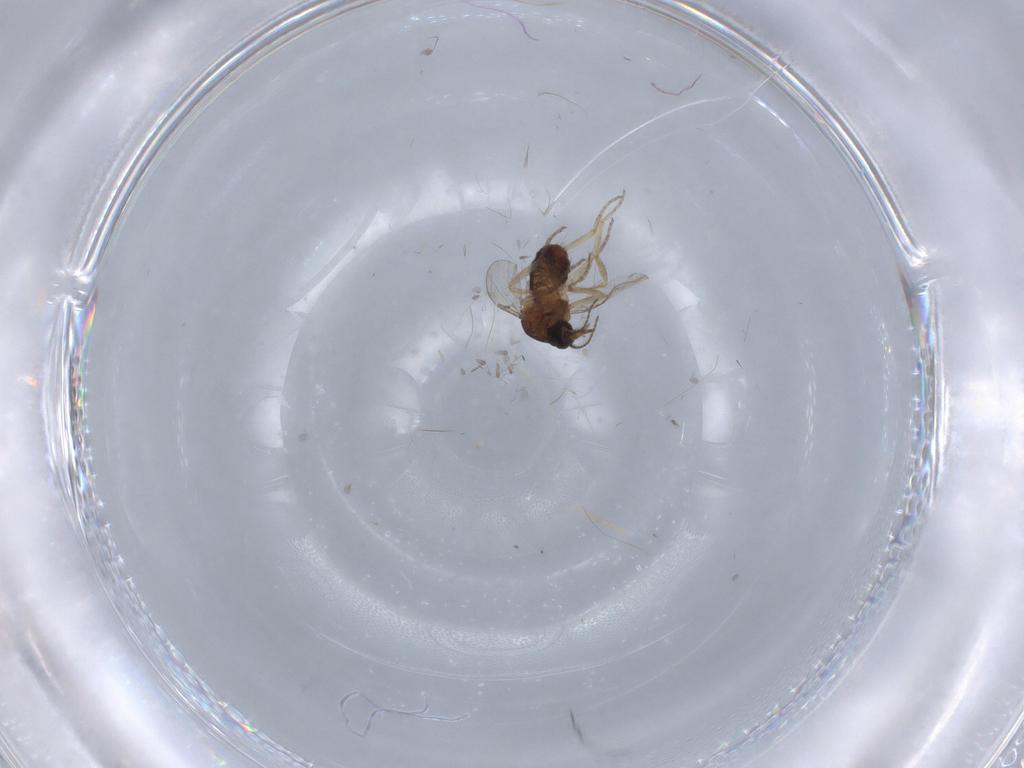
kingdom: Animalia
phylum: Arthropoda
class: Insecta
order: Diptera
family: Ceratopogonidae
